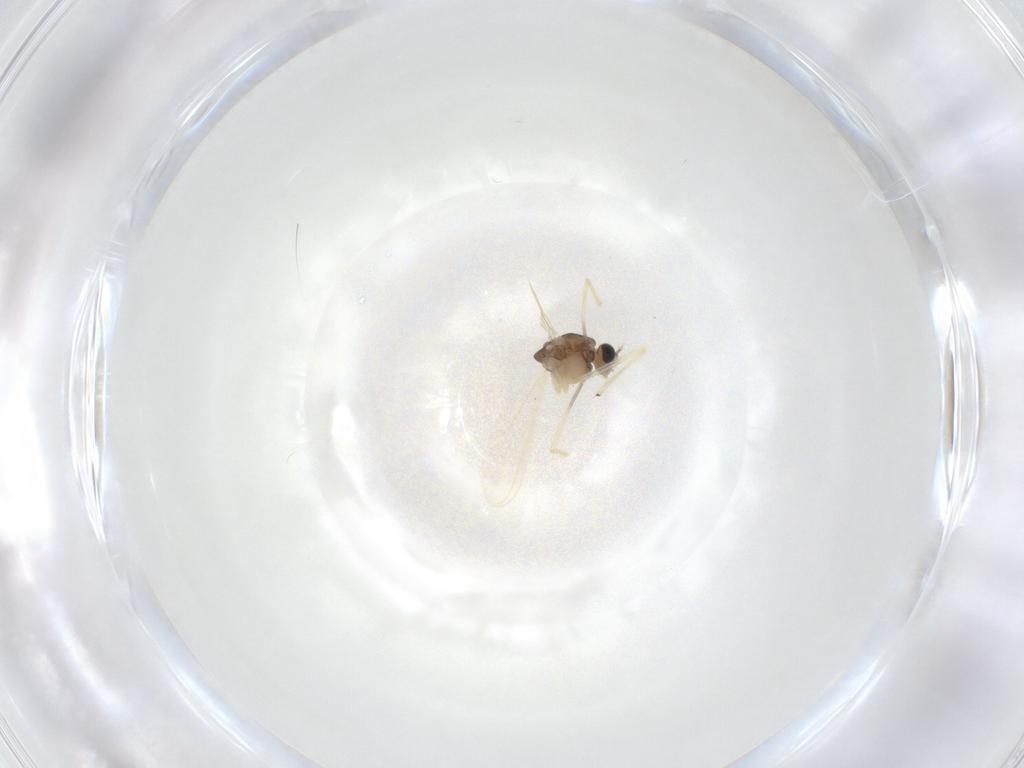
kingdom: Animalia
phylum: Arthropoda
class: Insecta
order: Diptera
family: Chironomidae
